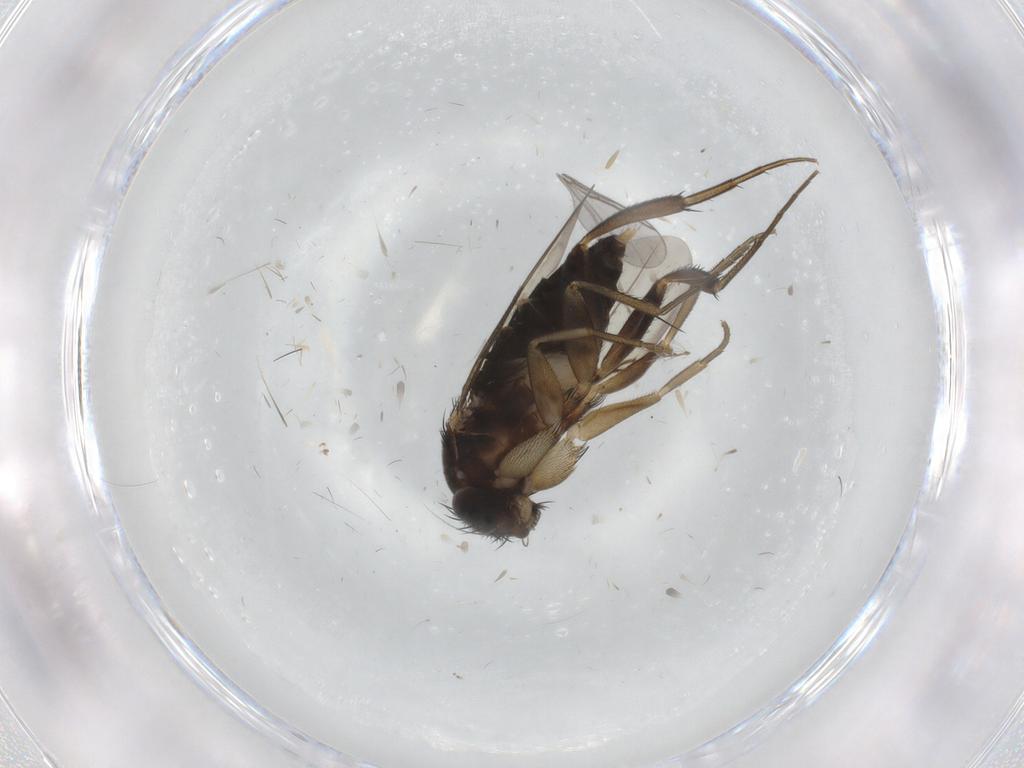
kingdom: Animalia
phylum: Arthropoda
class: Insecta
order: Diptera
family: Phoridae
